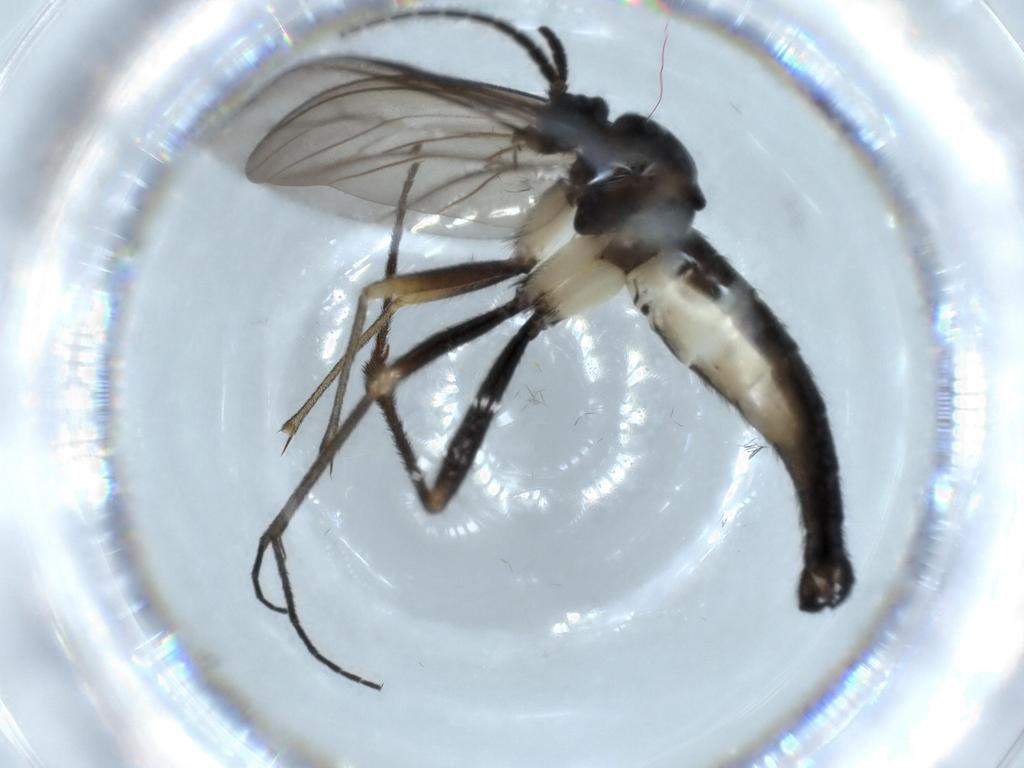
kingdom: Animalia
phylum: Arthropoda
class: Insecta
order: Diptera
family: Sciaridae
